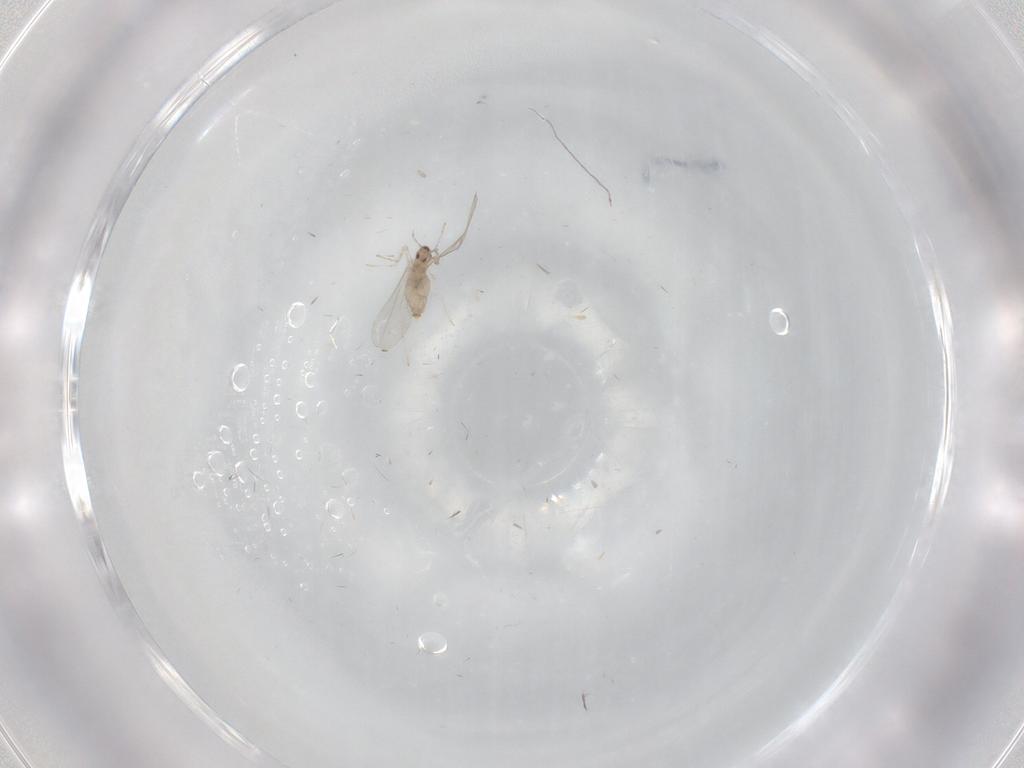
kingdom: Animalia
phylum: Arthropoda
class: Insecta
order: Diptera
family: Cecidomyiidae
